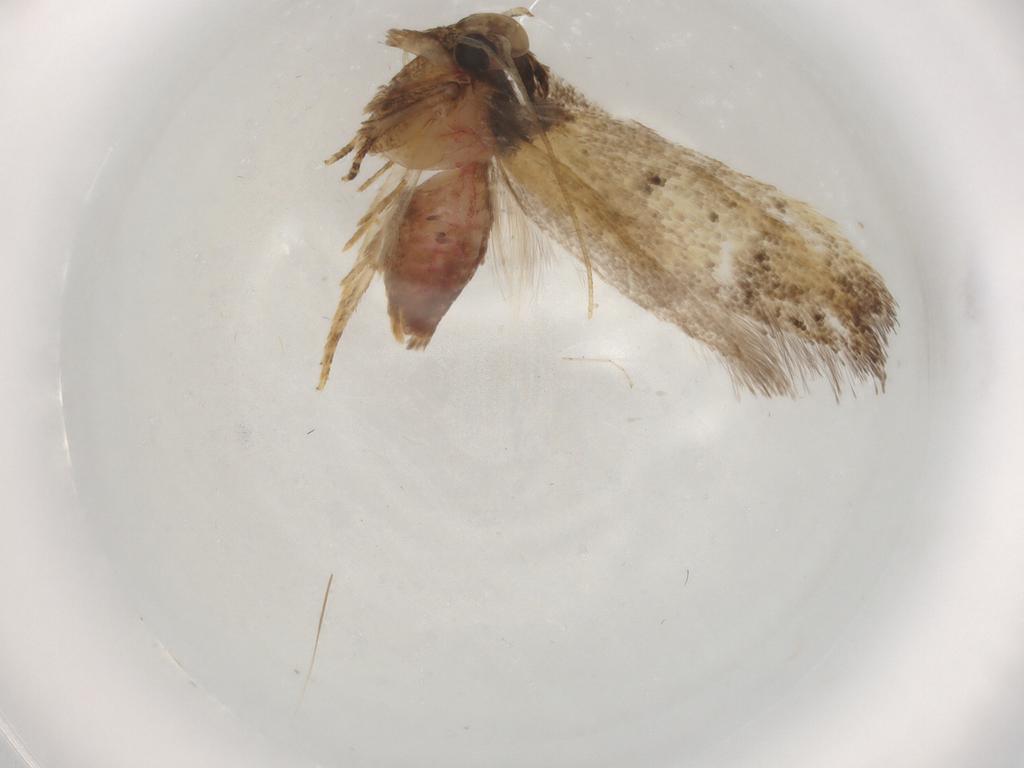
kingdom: Animalia
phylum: Arthropoda
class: Insecta
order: Lepidoptera
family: Oecophoridae
